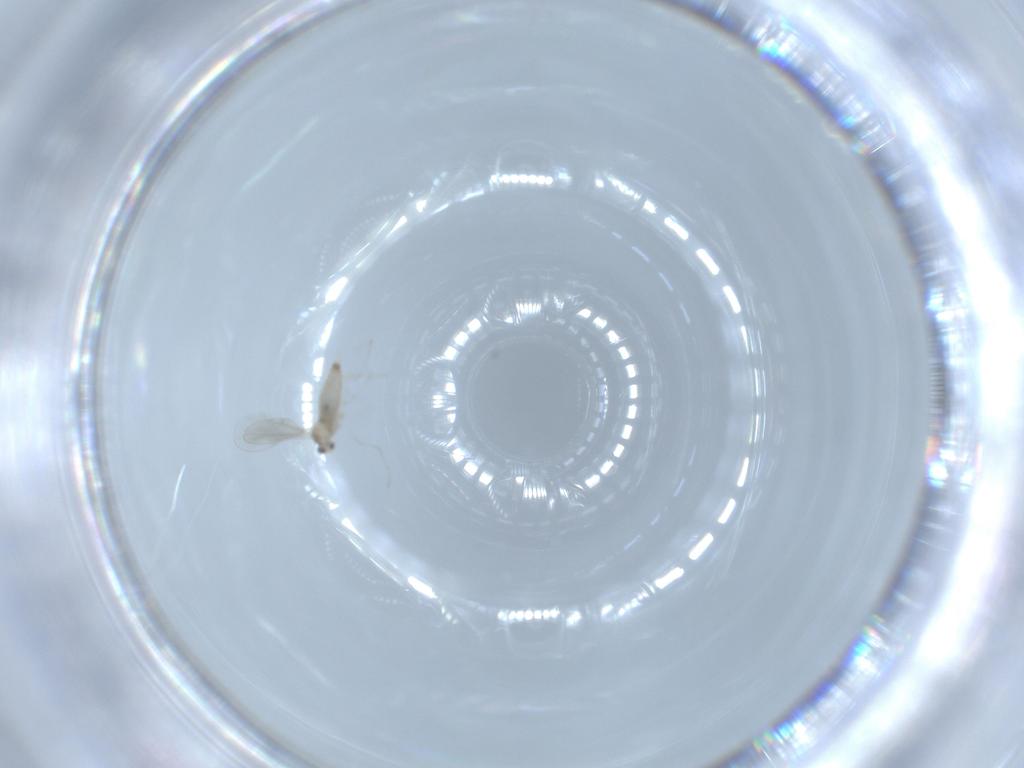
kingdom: Animalia
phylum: Arthropoda
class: Insecta
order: Diptera
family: Cecidomyiidae
